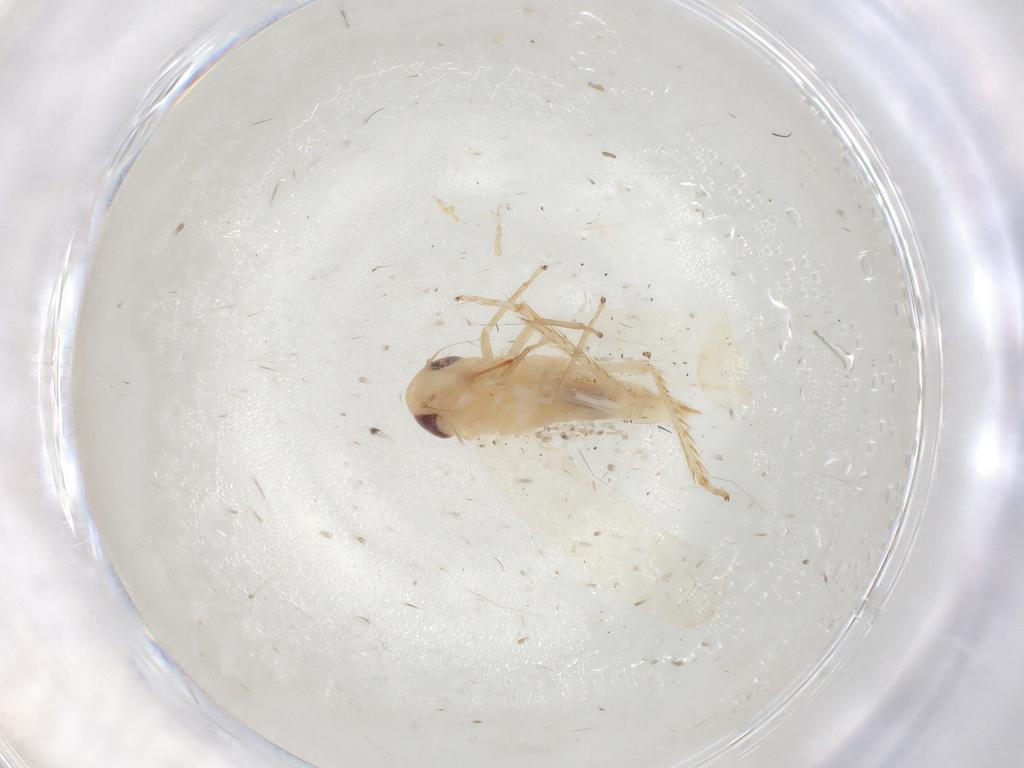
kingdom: Animalia
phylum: Arthropoda
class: Insecta
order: Hemiptera
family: Cicadellidae
